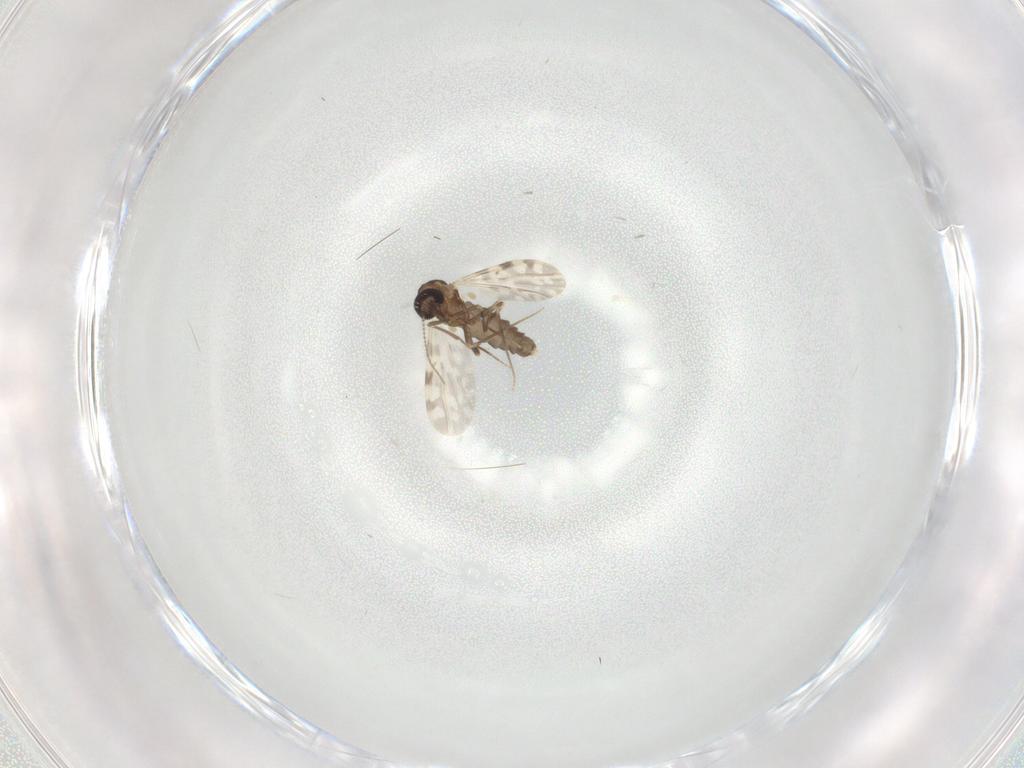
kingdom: Animalia
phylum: Arthropoda
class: Insecta
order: Diptera
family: Ceratopogonidae
